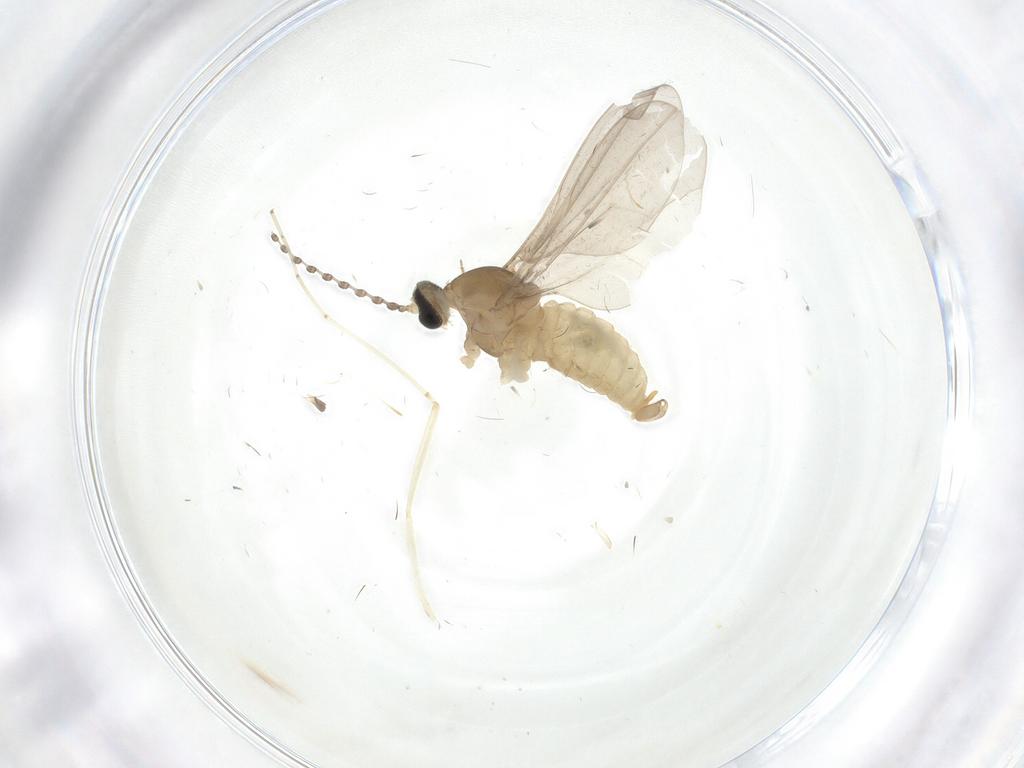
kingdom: Animalia
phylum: Arthropoda
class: Insecta
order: Diptera
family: Cecidomyiidae
